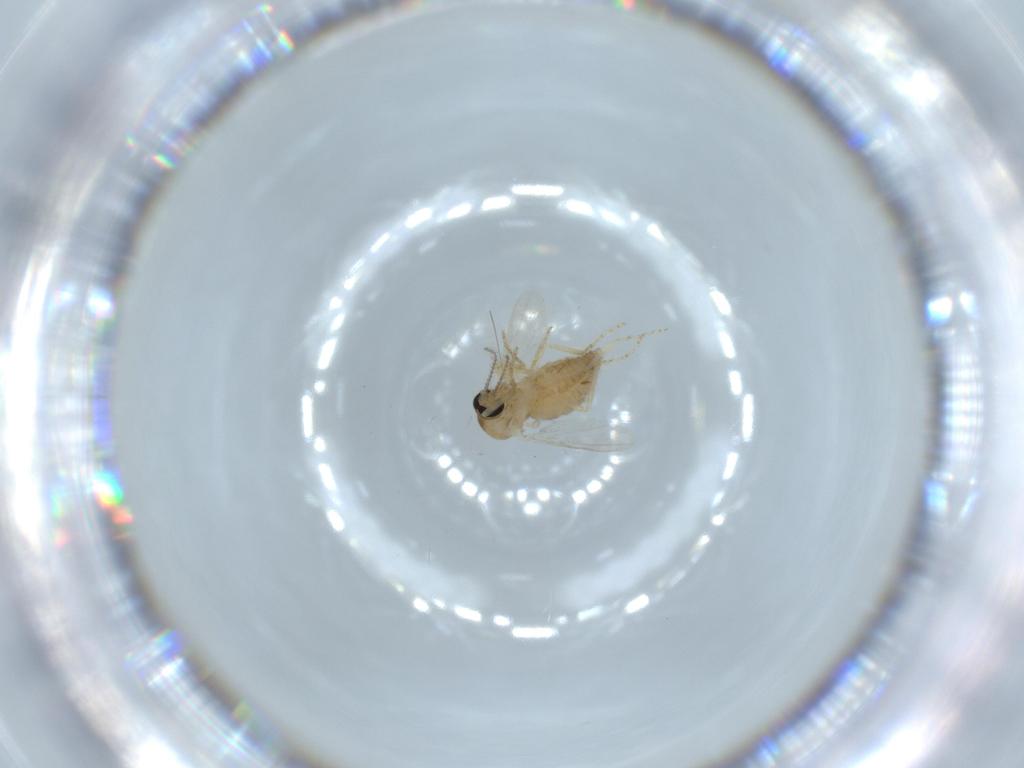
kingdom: Animalia
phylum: Arthropoda
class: Insecta
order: Diptera
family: Ceratopogonidae
